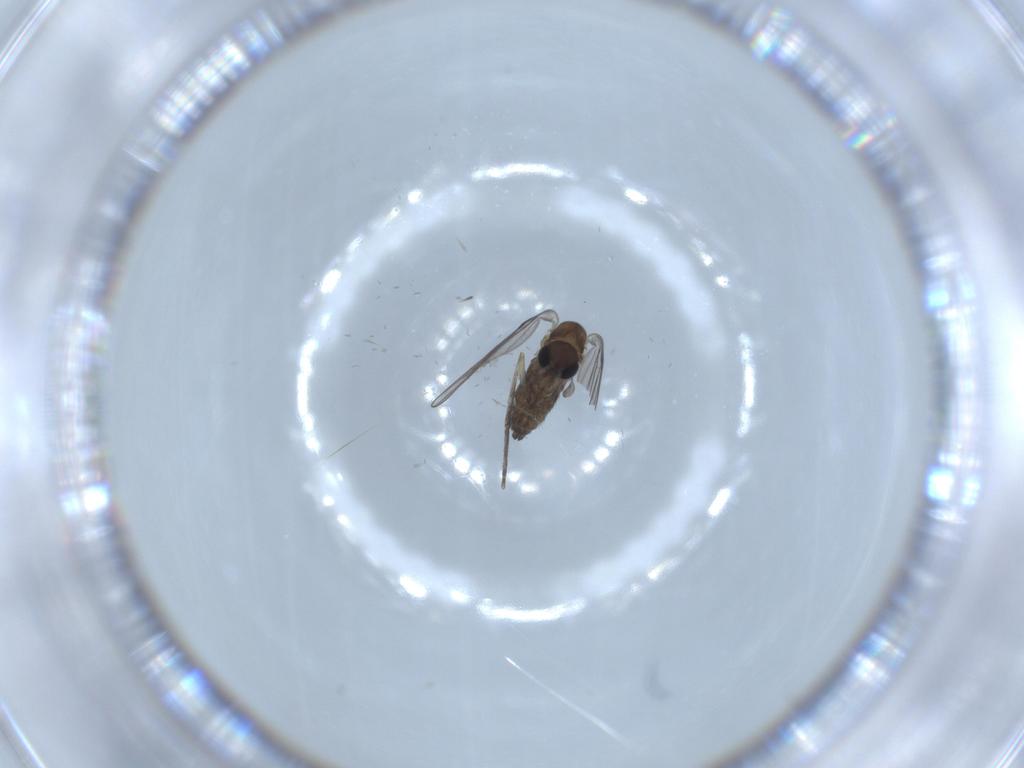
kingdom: Animalia
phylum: Arthropoda
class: Insecta
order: Diptera
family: Psychodidae
